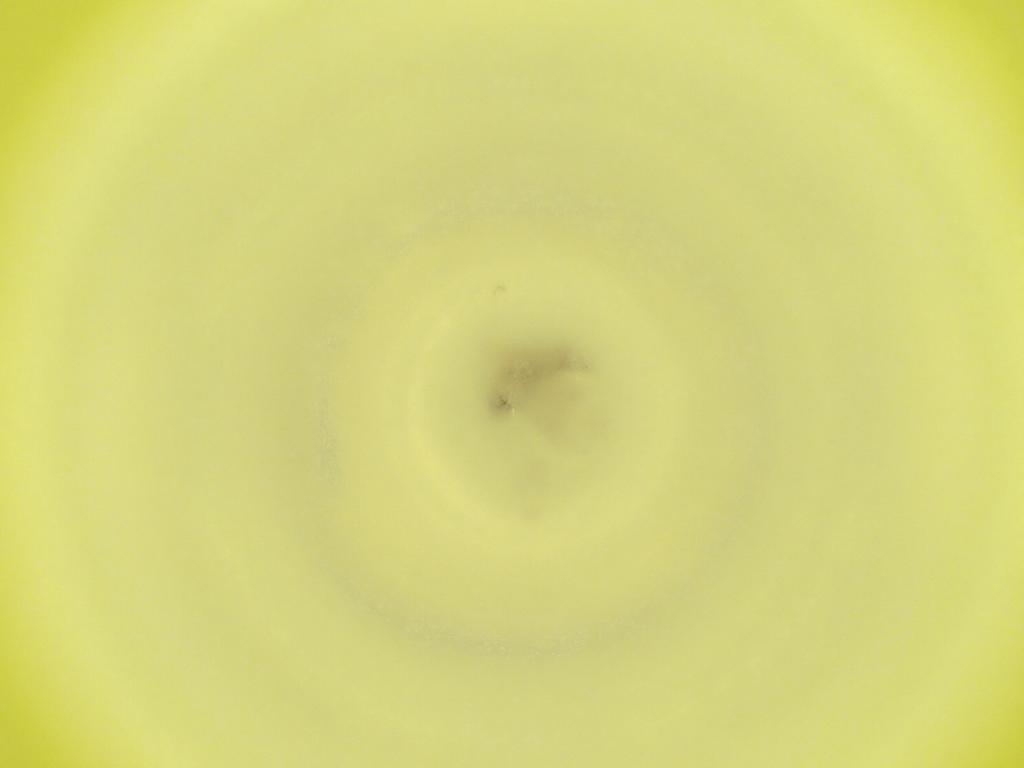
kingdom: Animalia
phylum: Arthropoda
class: Insecta
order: Diptera
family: Cecidomyiidae
